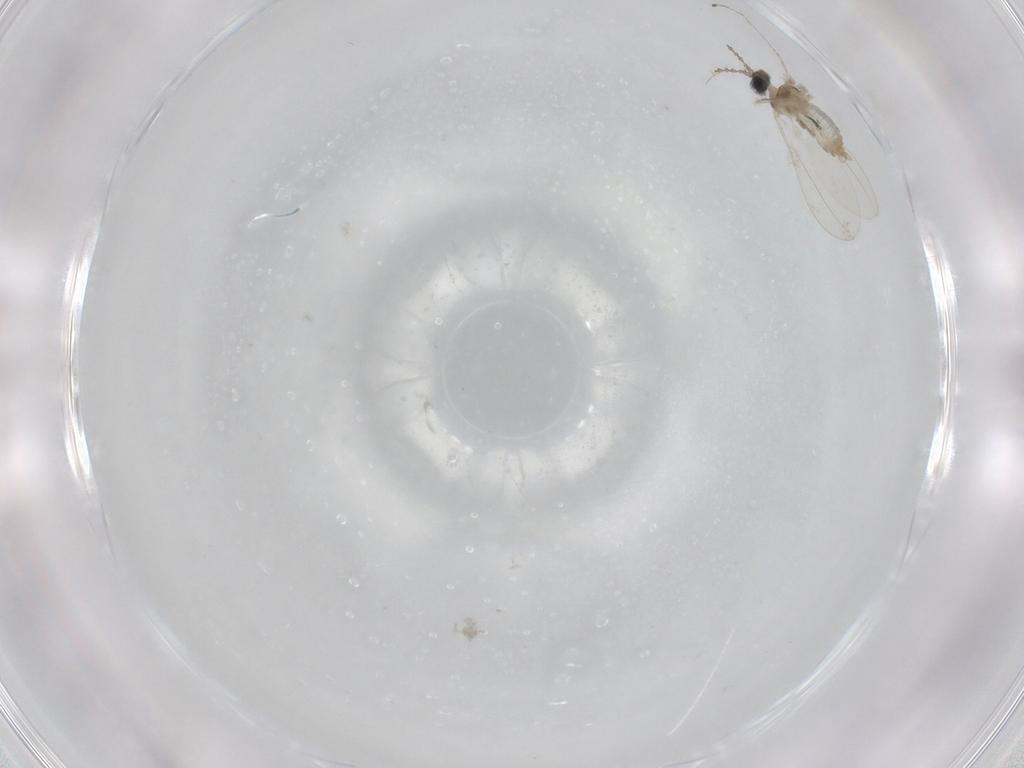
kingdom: Animalia
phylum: Arthropoda
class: Insecta
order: Diptera
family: Cecidomyiidae
